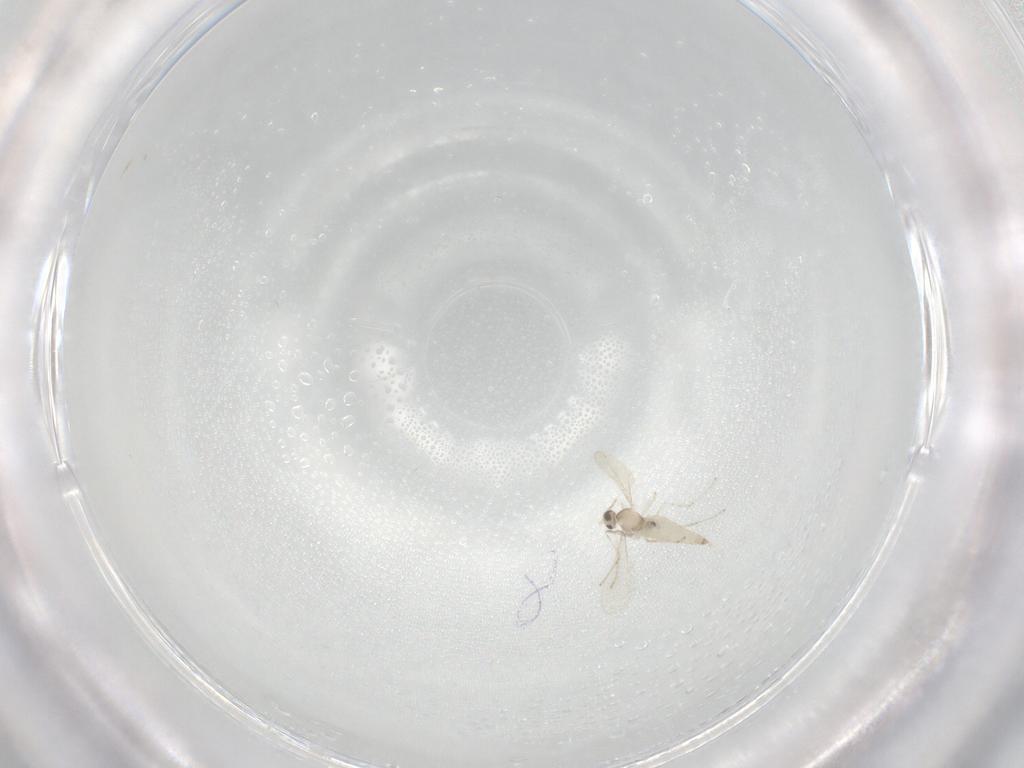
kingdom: Animalia
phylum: Arthropoda
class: Insecta
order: Diptera
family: Cecidomyiidae
